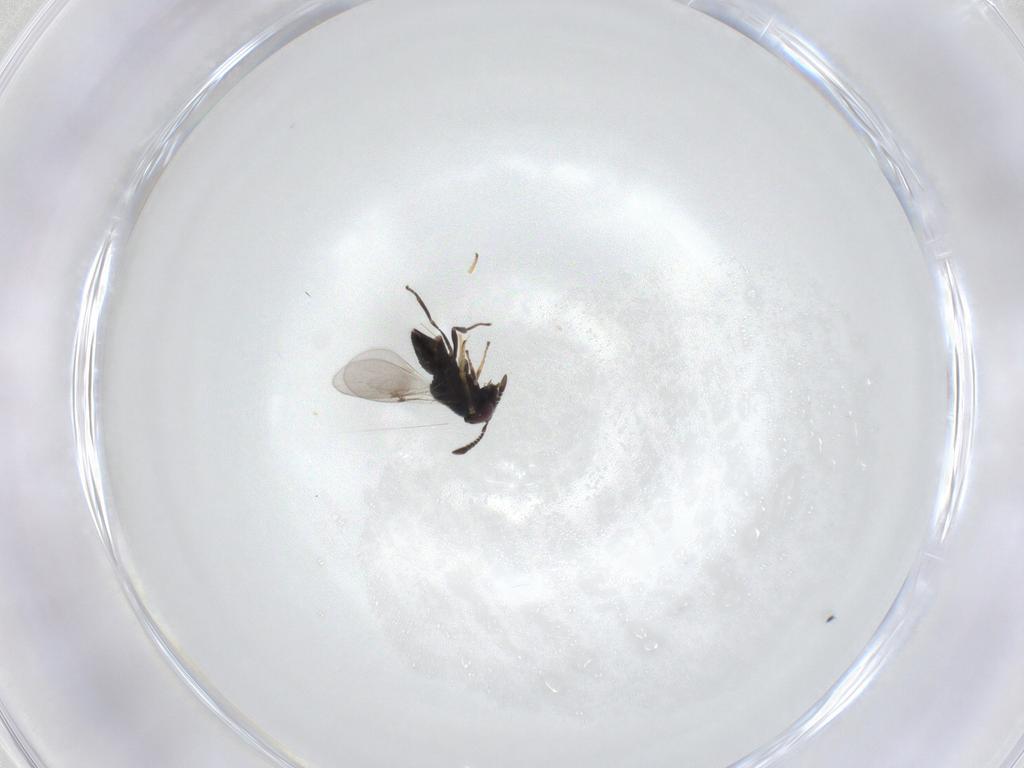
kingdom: Animalia
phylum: Arthropoda
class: Insecta
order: Hymenoptera
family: Encyrtidae
